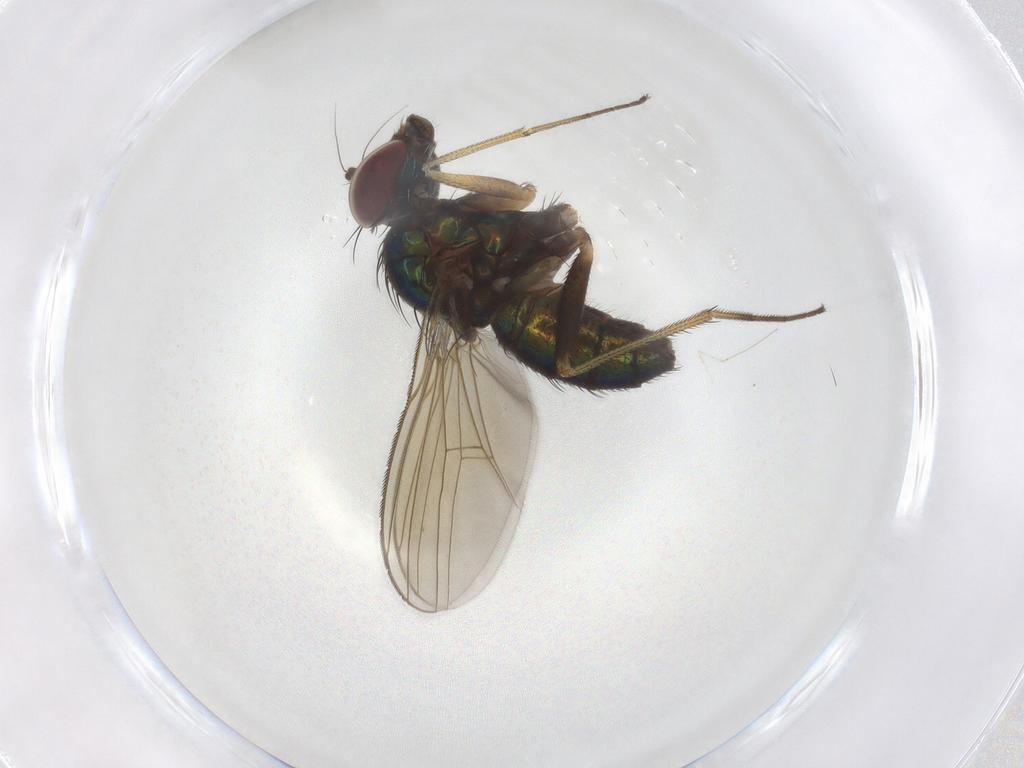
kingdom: Animalia
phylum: Arthropoda
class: Insecta
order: Diptera
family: Dolichopodidae
